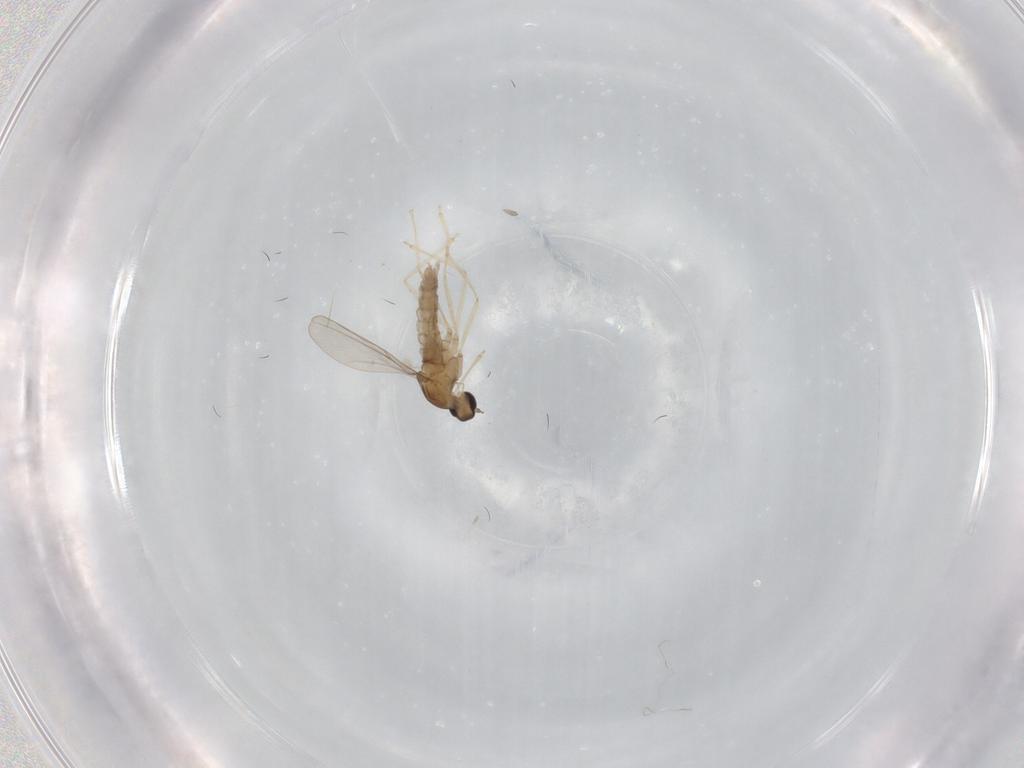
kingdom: Animalia
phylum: Arthropoda
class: Insecta
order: Diptera
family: Cecidomyiidae
